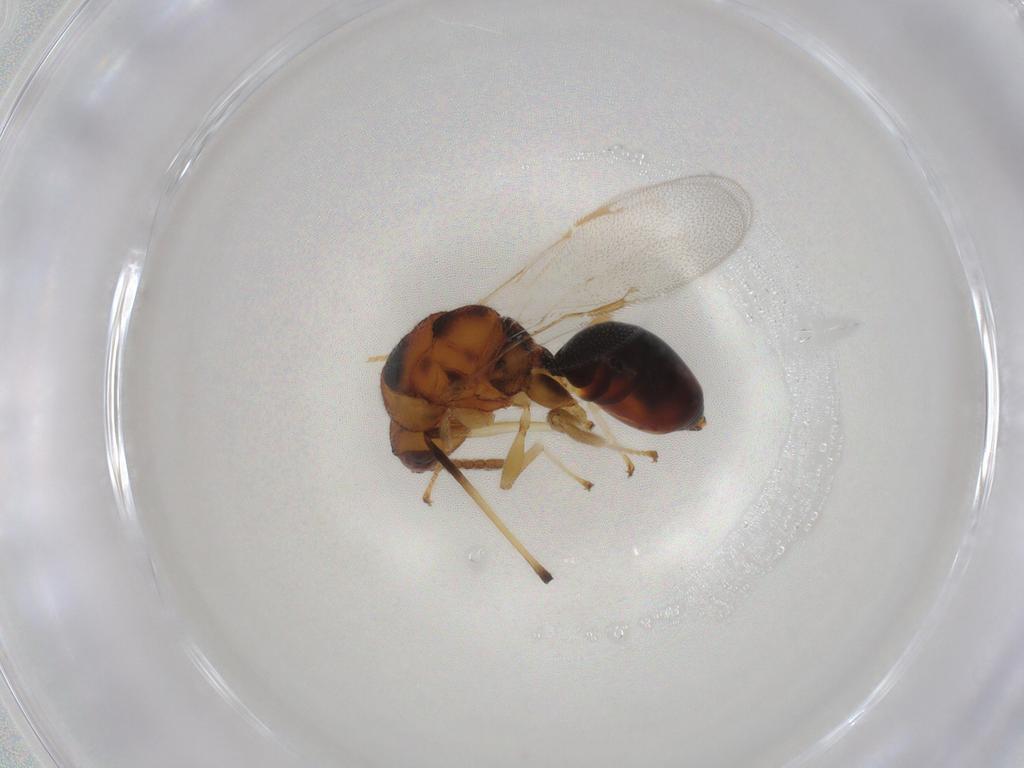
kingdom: Animalia
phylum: Arthropoda
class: Insecta
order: Hymenoptera
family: Eurytomidae
